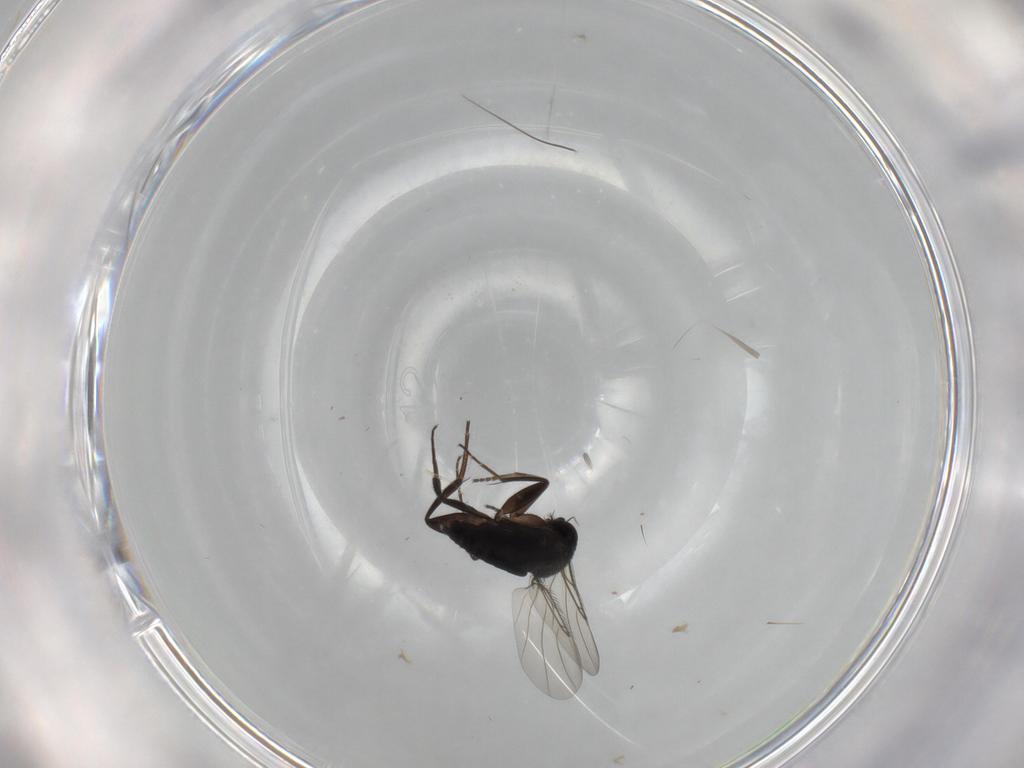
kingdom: Animalia
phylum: Arthropoda
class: Insecta
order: Diptera
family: Phoridae
